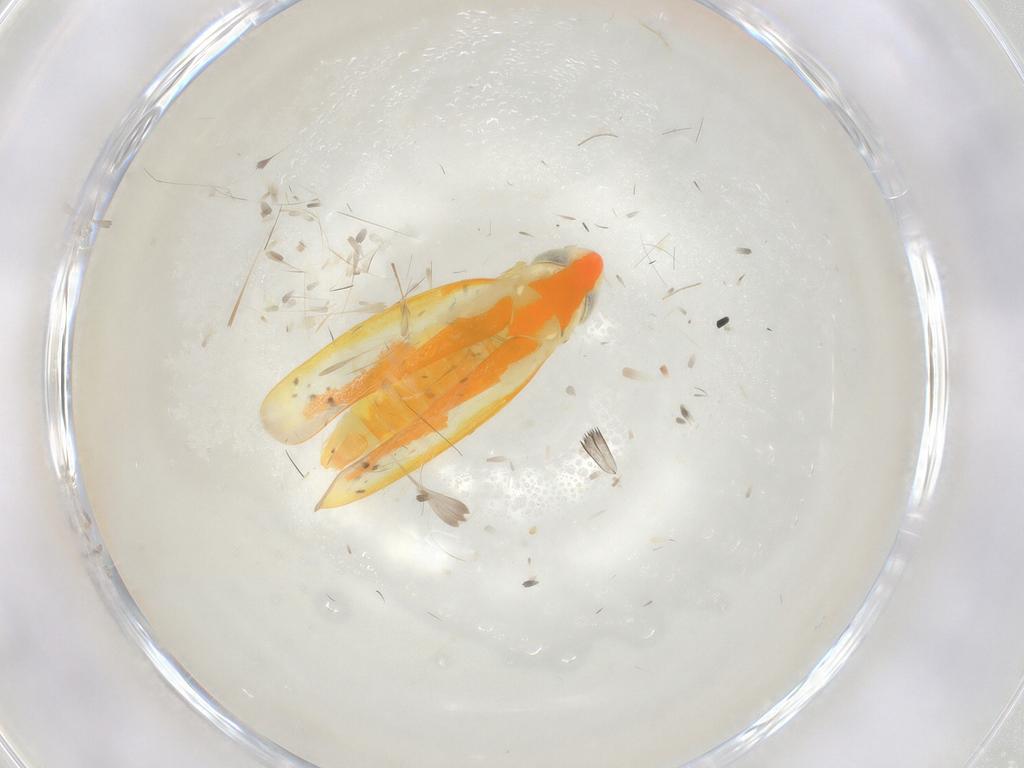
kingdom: Animalia
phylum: Arthropoda
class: Insecta
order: Hemiptera
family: Cicadellidae
